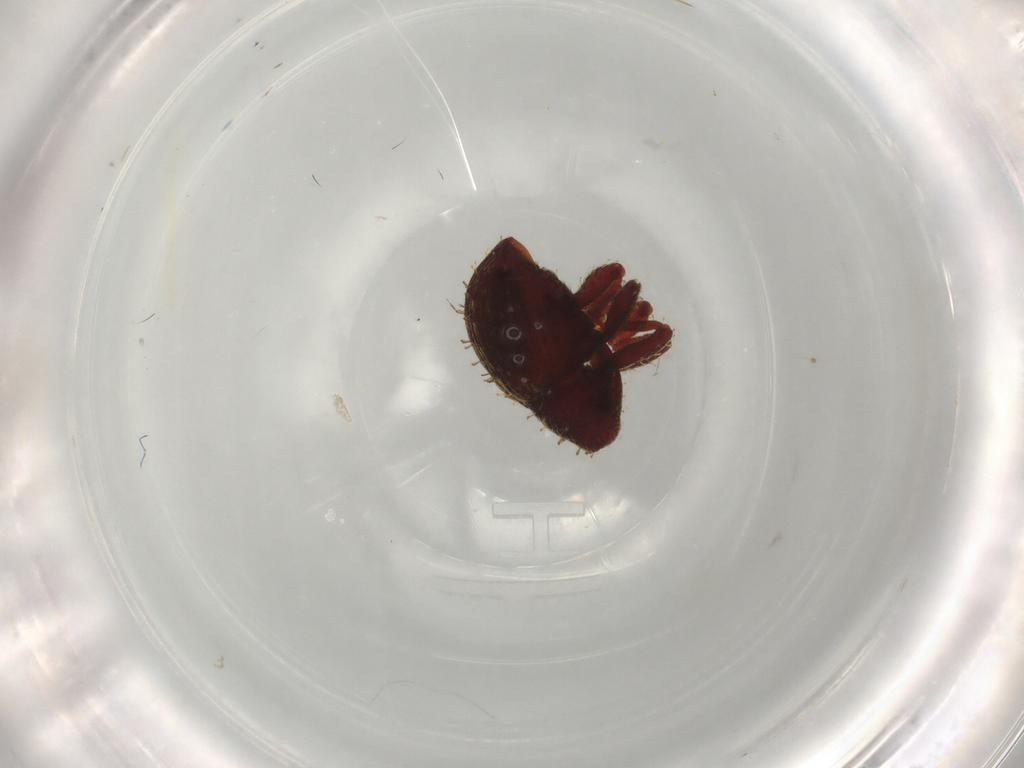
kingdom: Animalia
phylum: Arthropoda
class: Insecta
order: Coleoptera
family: Curculionidae
